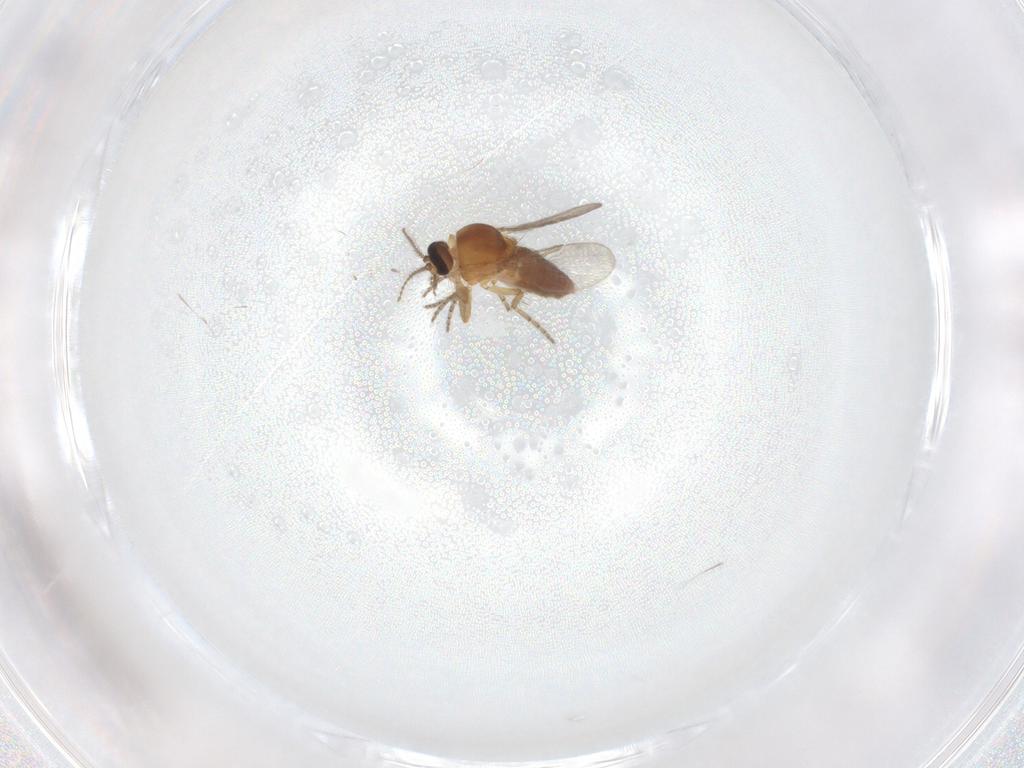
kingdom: Animalia
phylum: Arthropoda
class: Insecta
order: Diptera
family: Ceratopogonidae
